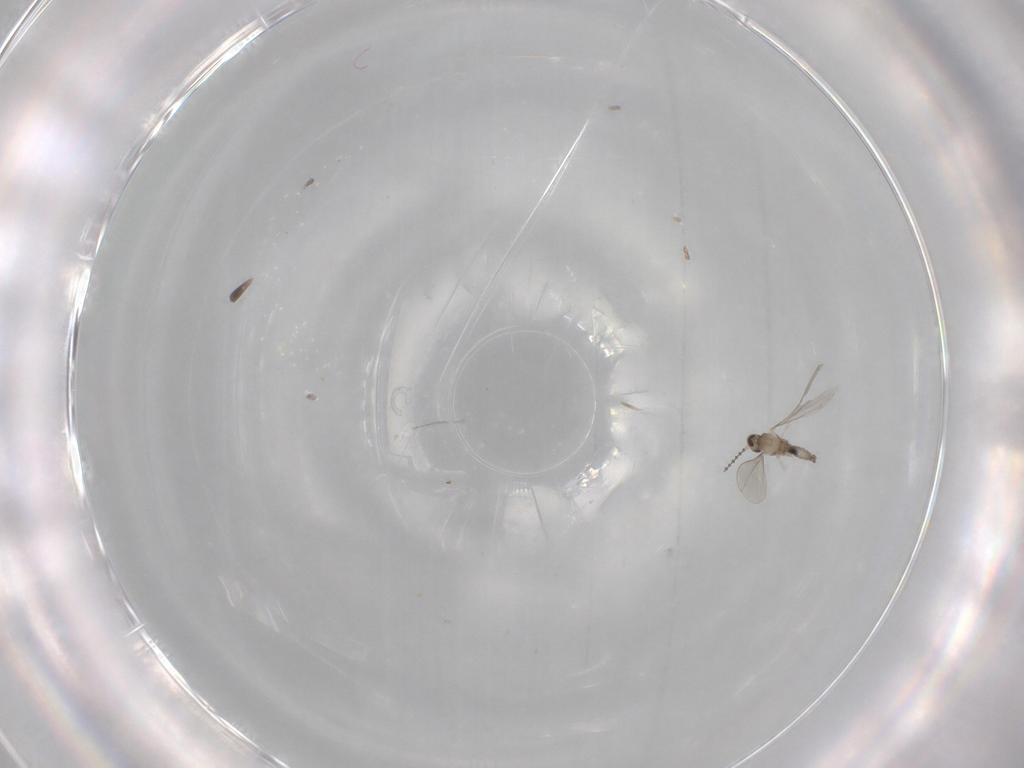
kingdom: Animalia
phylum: Arthropoda
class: Insecta
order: Diptera
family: Cecidomyiidae
